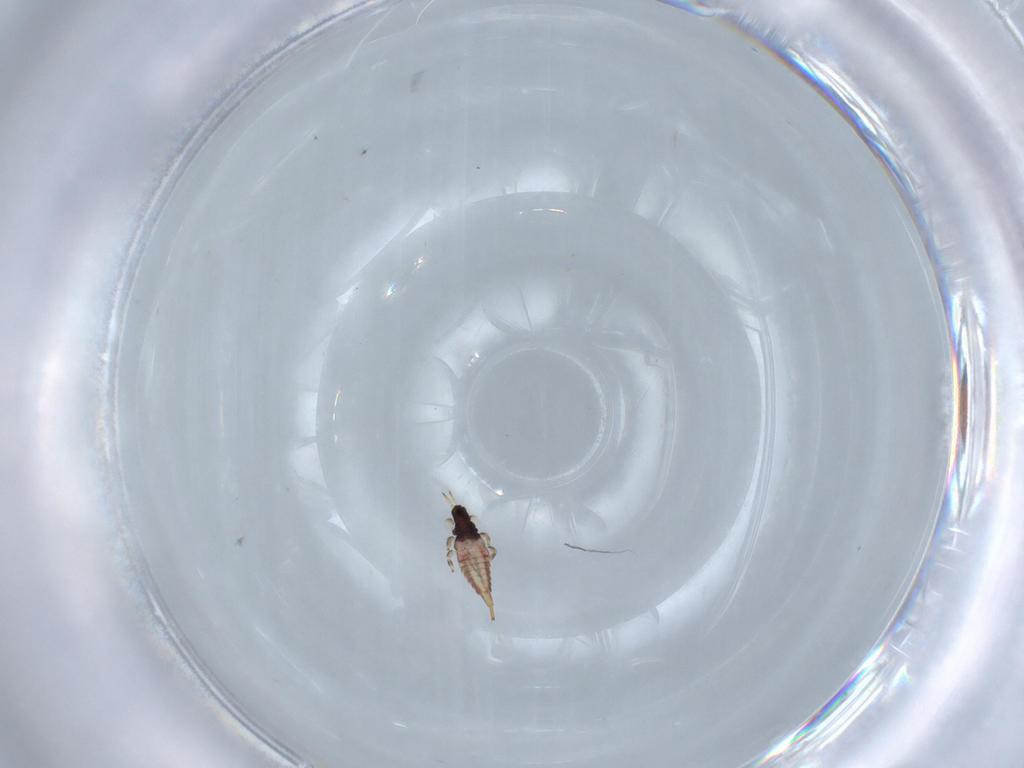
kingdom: Animalia
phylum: Arthropoda
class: Insecta
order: Thysanoptera
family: Phlaeothripidae
